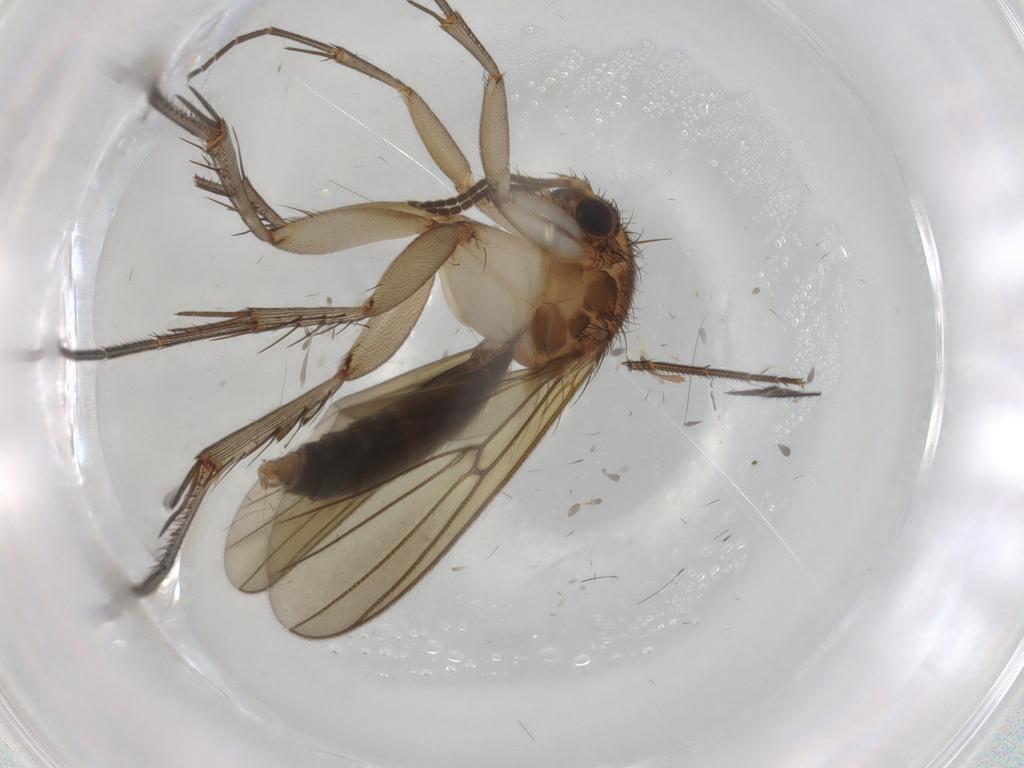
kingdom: Animalia
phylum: Arthropoda
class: Insecta
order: Diptera
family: Mycetophilidae
